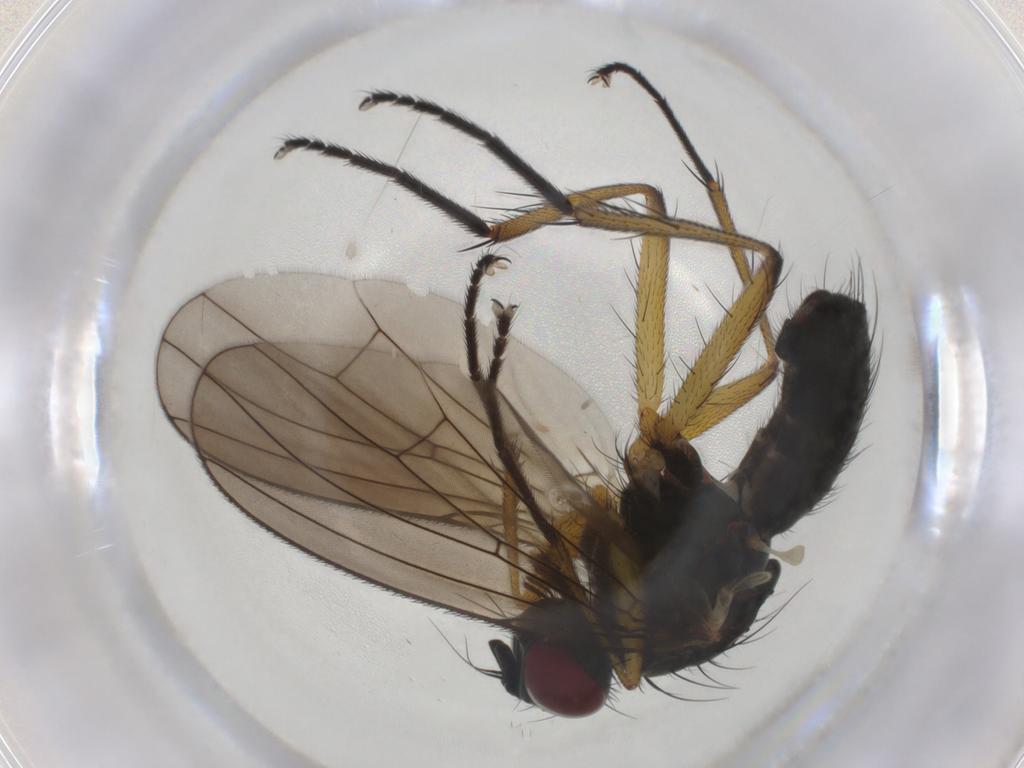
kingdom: Animalia
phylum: Arthropoda
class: Insecta
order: Diptera
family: Muscidae
